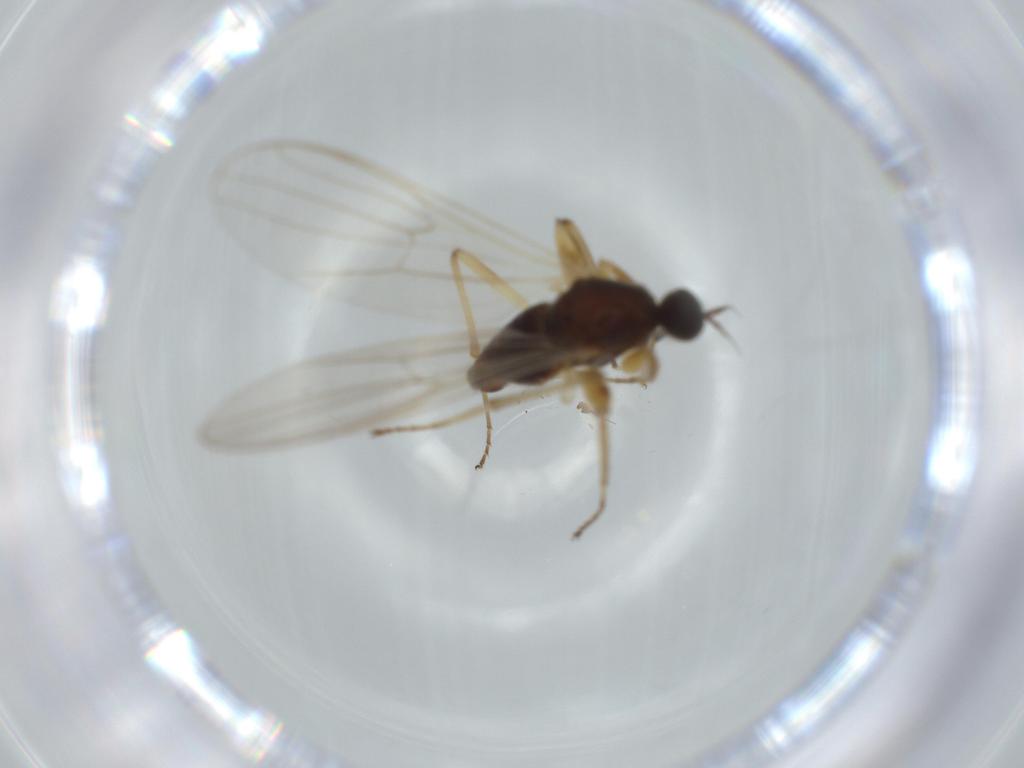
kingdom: Animalia
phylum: Arthropoda
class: Insecta
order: Diptera
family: Hybotidae
